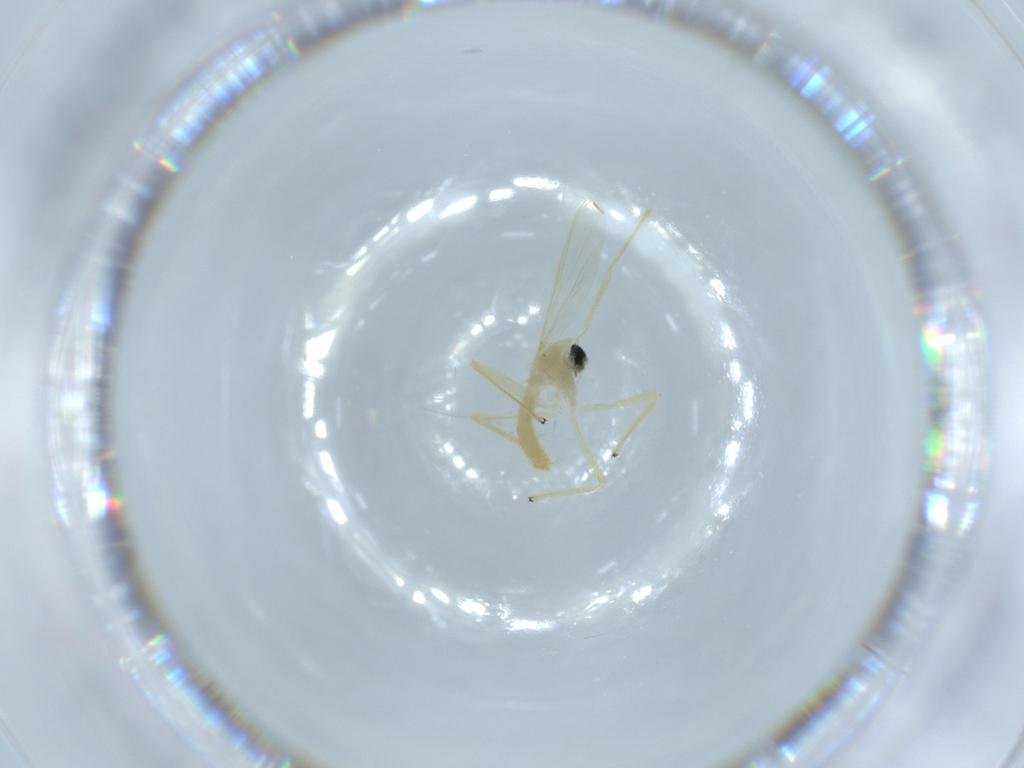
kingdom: Animalia
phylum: Arthropoda
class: Insecta
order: Diptera
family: Chironomidae
